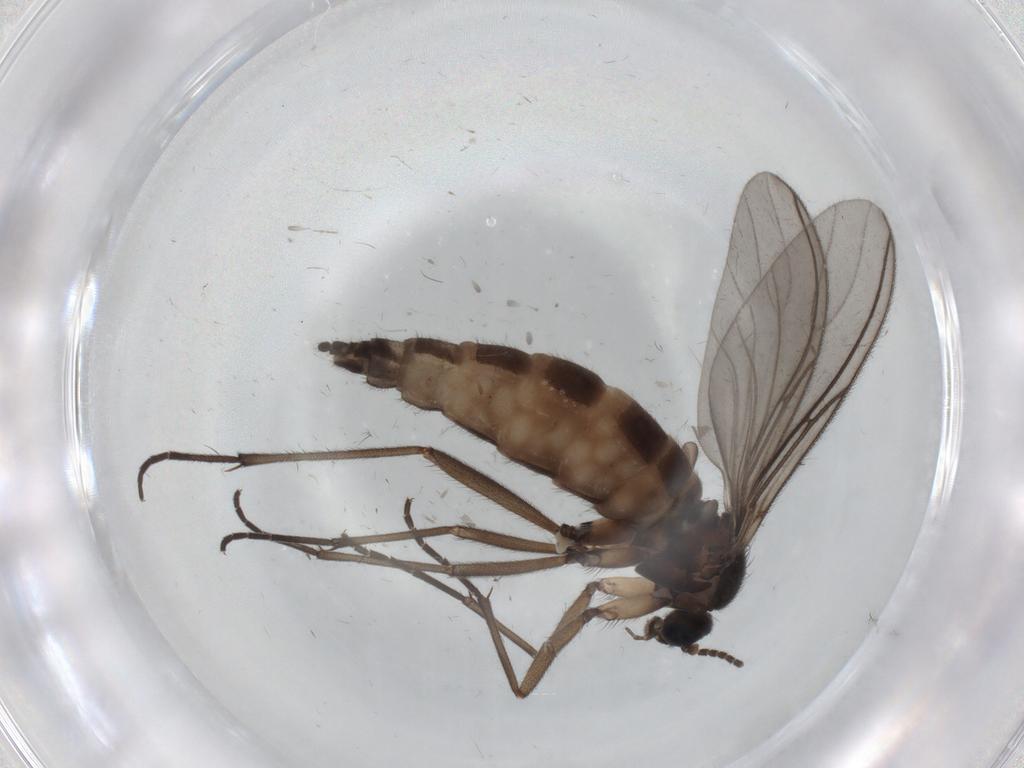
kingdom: Animalia
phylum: Arthropoda
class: Insecta
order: Diptera
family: Sciaridae
